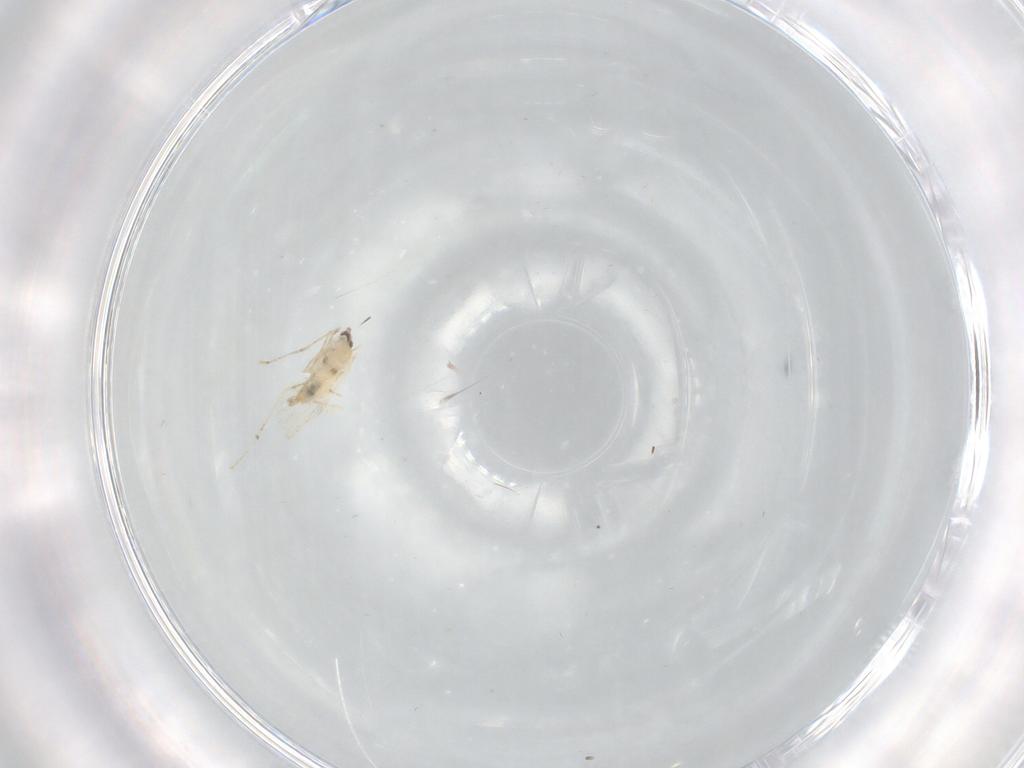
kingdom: Animalia
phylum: Arthropoda
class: Insecta
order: Diptera
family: Cecidomyiidae
